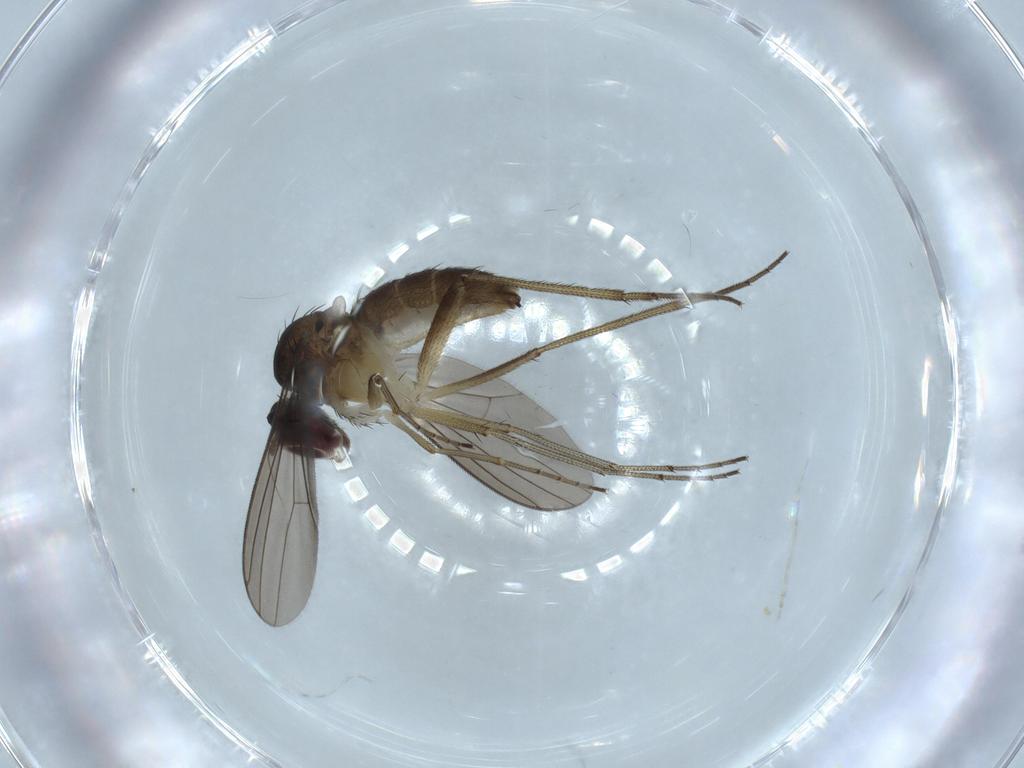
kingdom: Animalia
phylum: Arthropoda
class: Insecta
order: Diptera
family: Dolichopodidae
